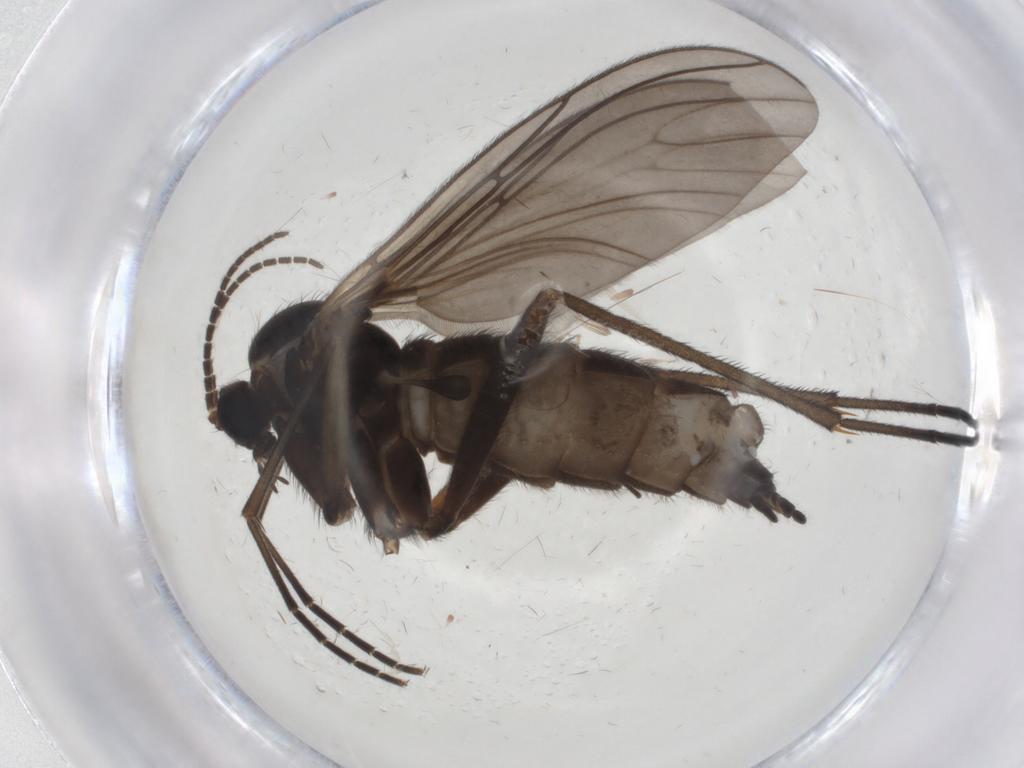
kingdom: Animalia
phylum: Arthropoda
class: Insecta
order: Diptera
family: Sciaridae
